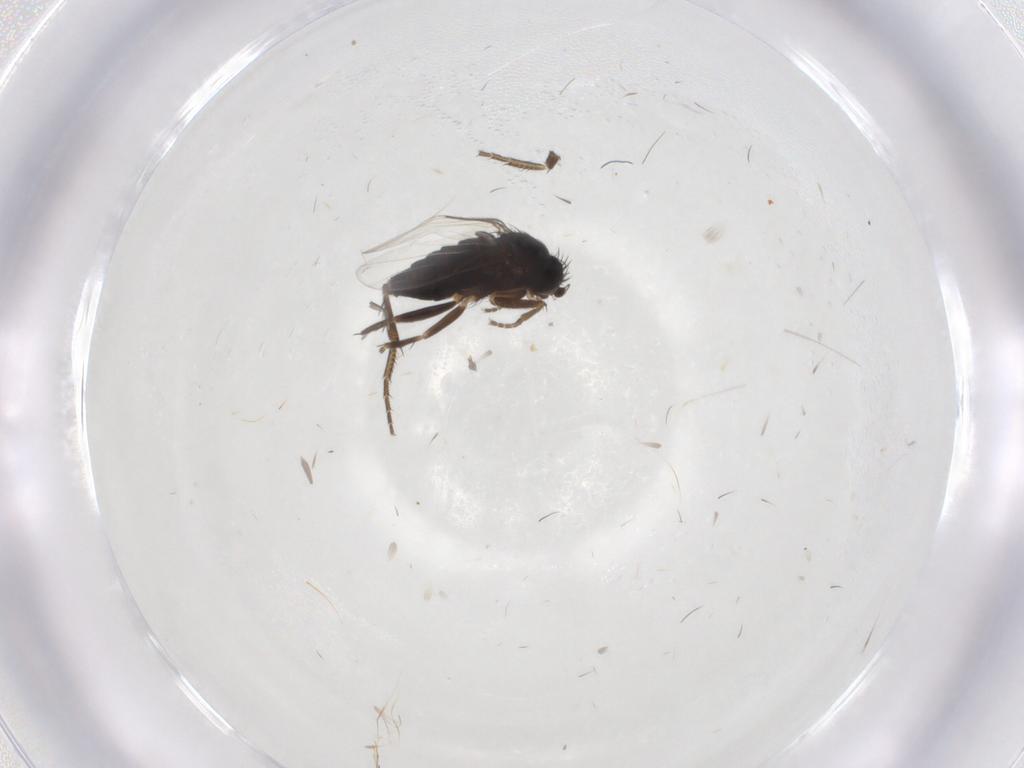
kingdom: Animalia
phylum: Arthropoda
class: Insecta
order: Diptera
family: Phoridae
